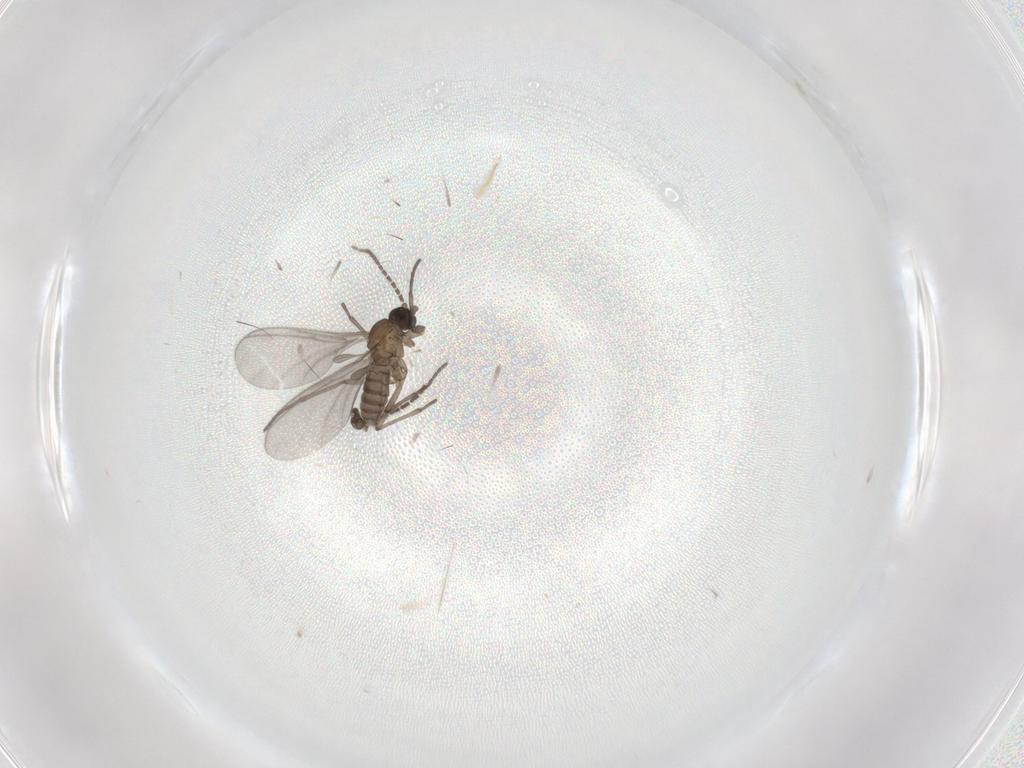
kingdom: Animalia
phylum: Arthropoda
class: Insecta
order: Diptera
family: Sciaridae
